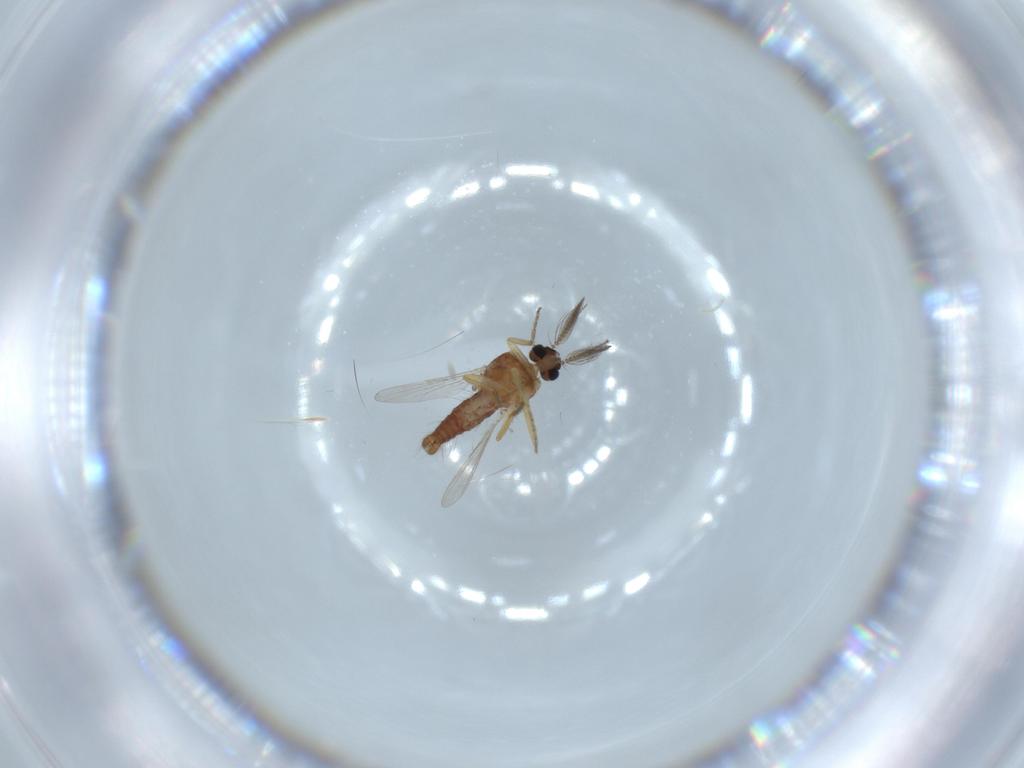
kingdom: Animalia
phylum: Arthropoda
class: Insecta
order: Diptera
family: Ceratopogonidae
